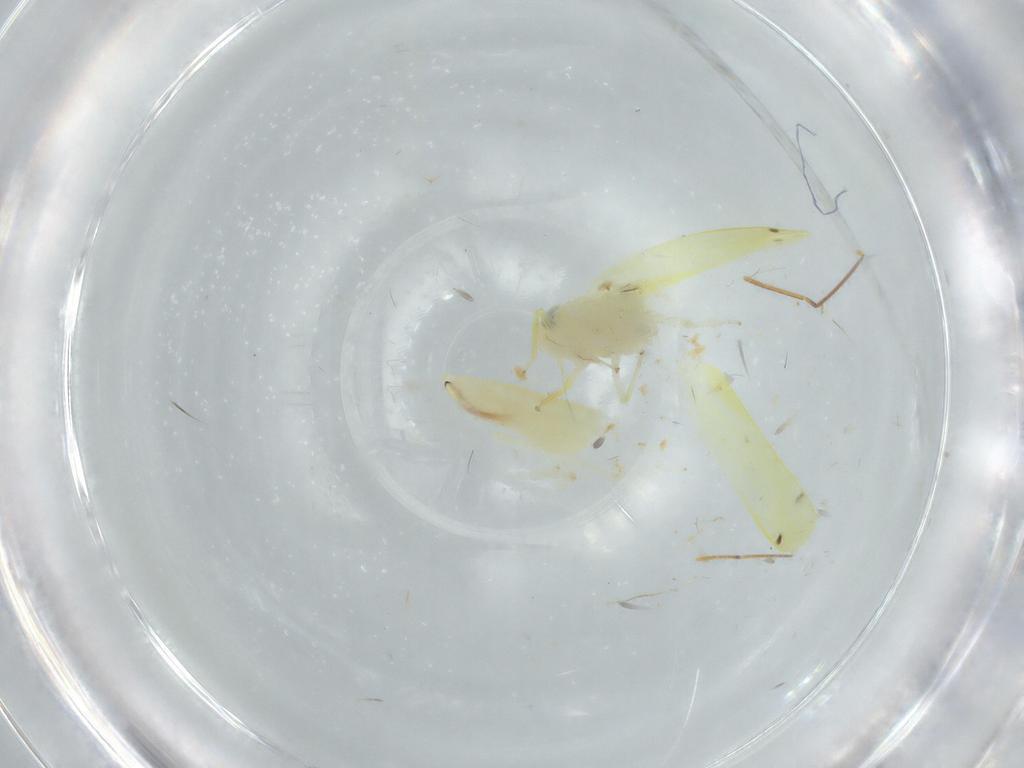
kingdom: Animalia
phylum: Arthropoda
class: Insecta
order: Hemiptera
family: Cicadellidae
